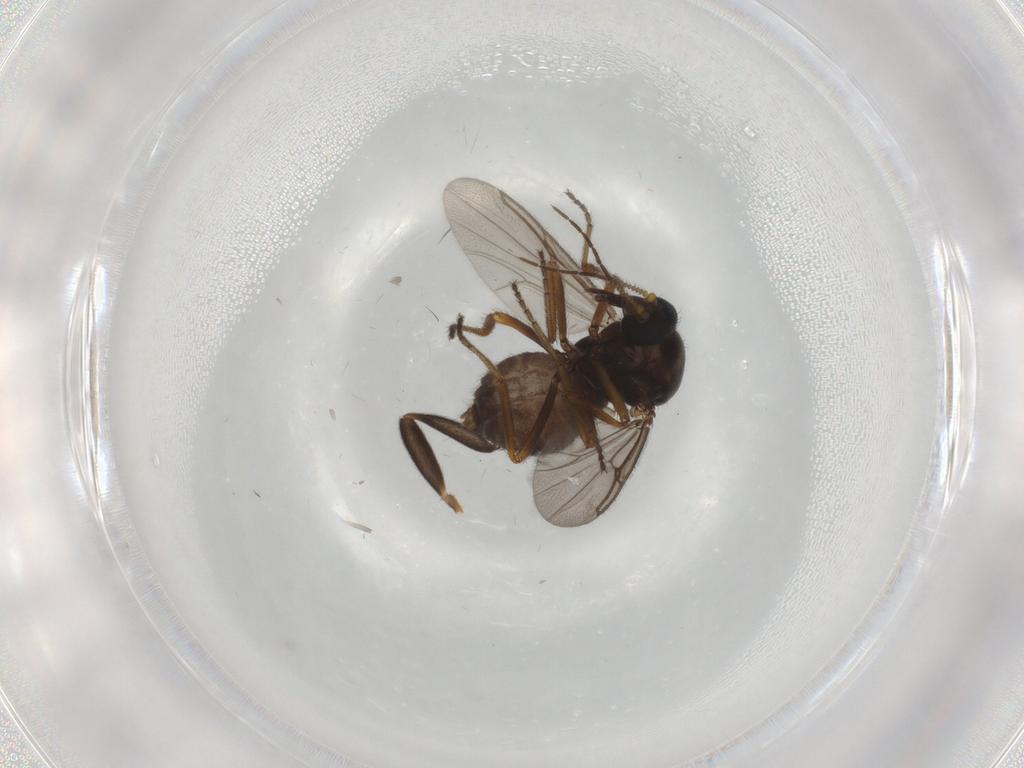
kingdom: Animalia
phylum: Arthropoda
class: Insecta
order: Diptera
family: Ceratopogonidae
